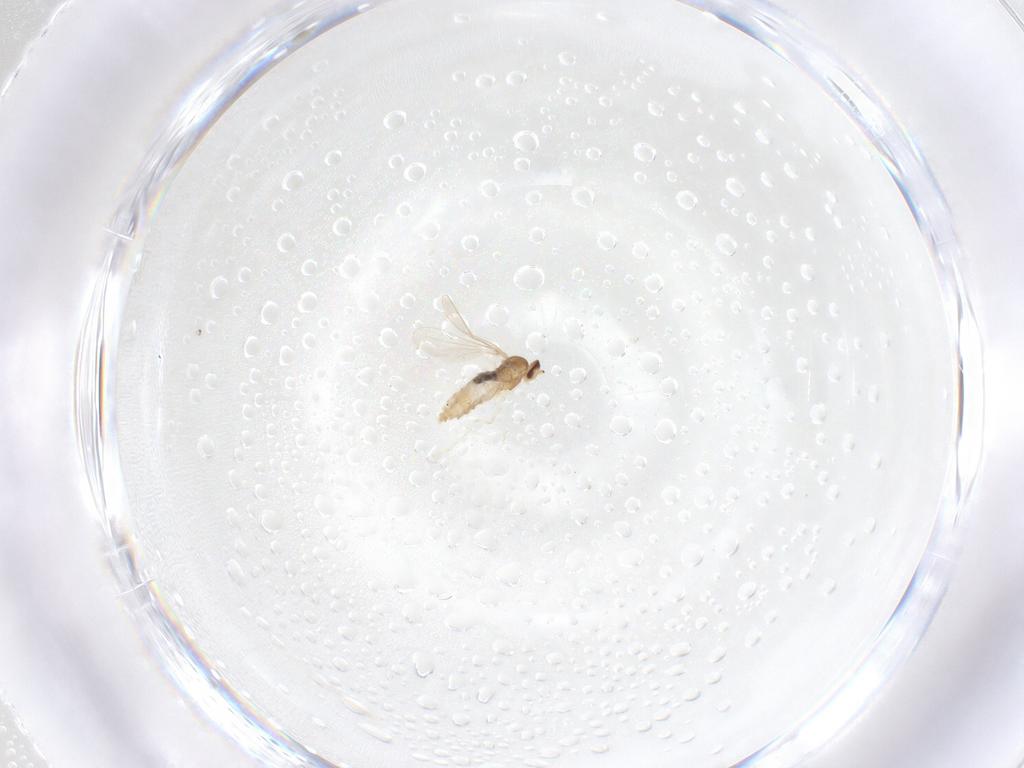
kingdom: Animalia
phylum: Arthropoda
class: Insecta
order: Diptera
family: Cecidomyiidae
